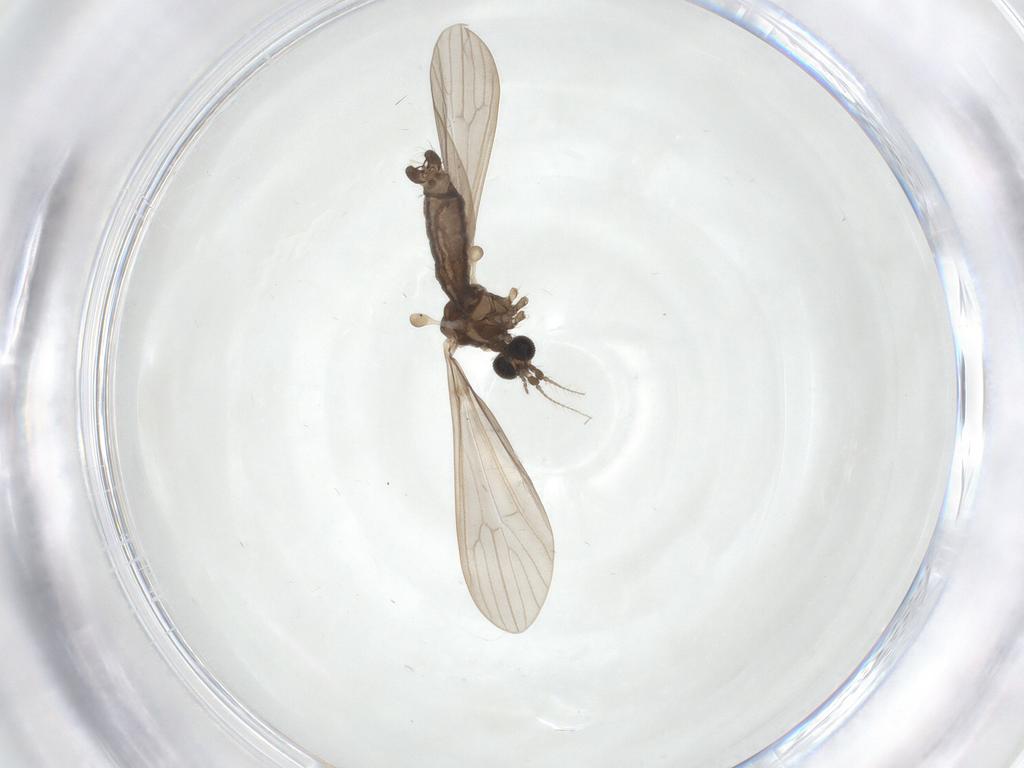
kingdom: Animalia
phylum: Arthropoda
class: Insecta
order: Diptera
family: Limoniidae
